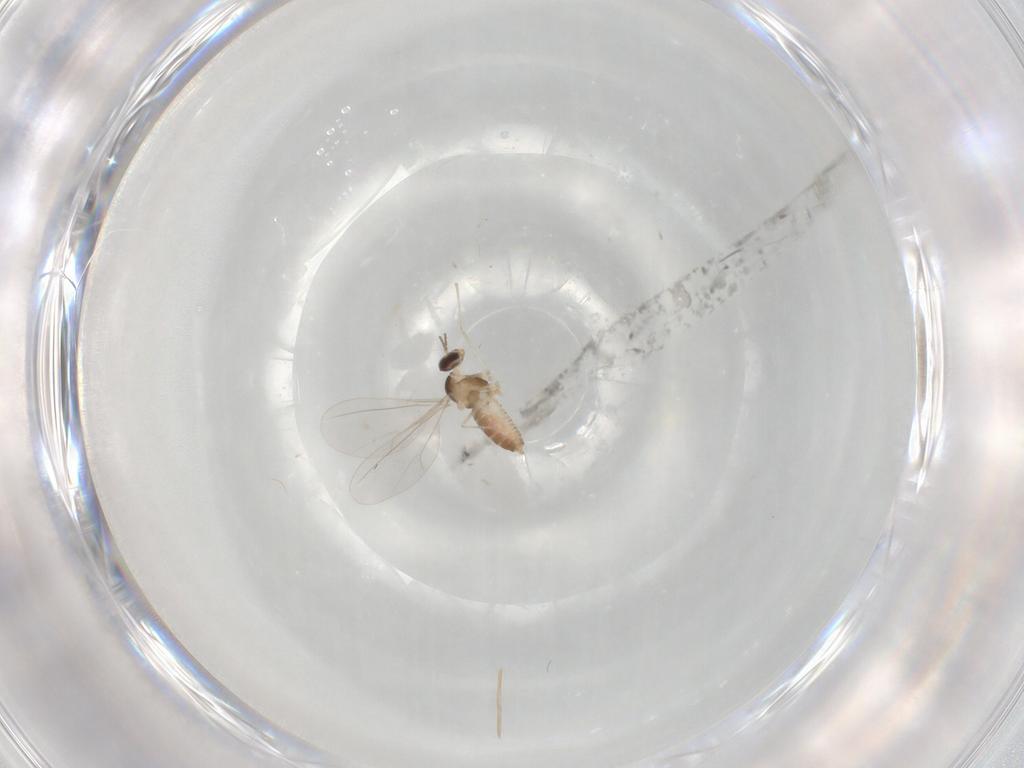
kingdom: Animalia
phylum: Arthropoda
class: Insecta
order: Diptera
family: Cecidomyiidae
